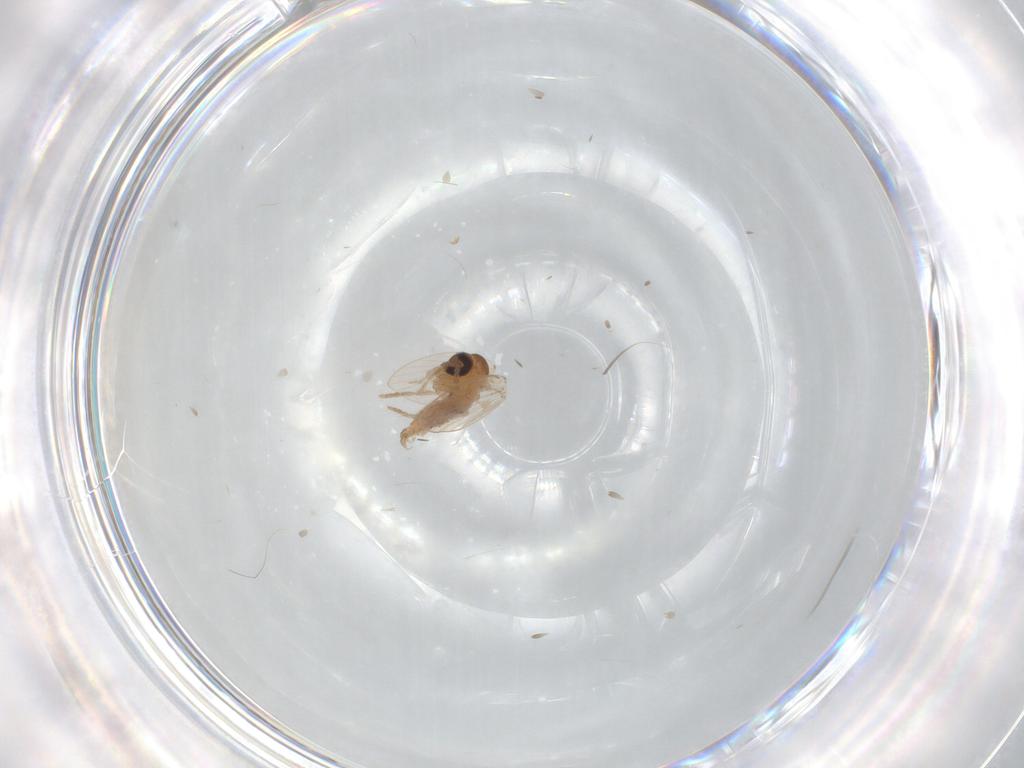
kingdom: Animalia
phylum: Arthropoda
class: Insecta
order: Diptera
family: Psychodidae
